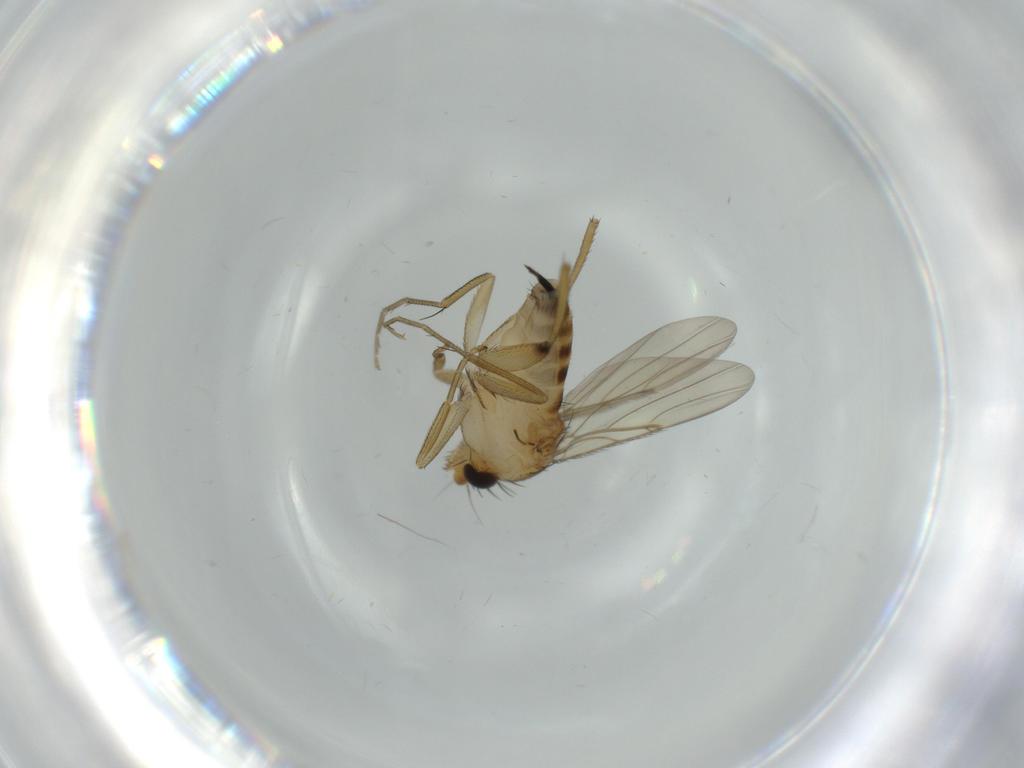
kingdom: Animalia
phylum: Arthropoda
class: Insecta
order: Diptera
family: Phoridae
